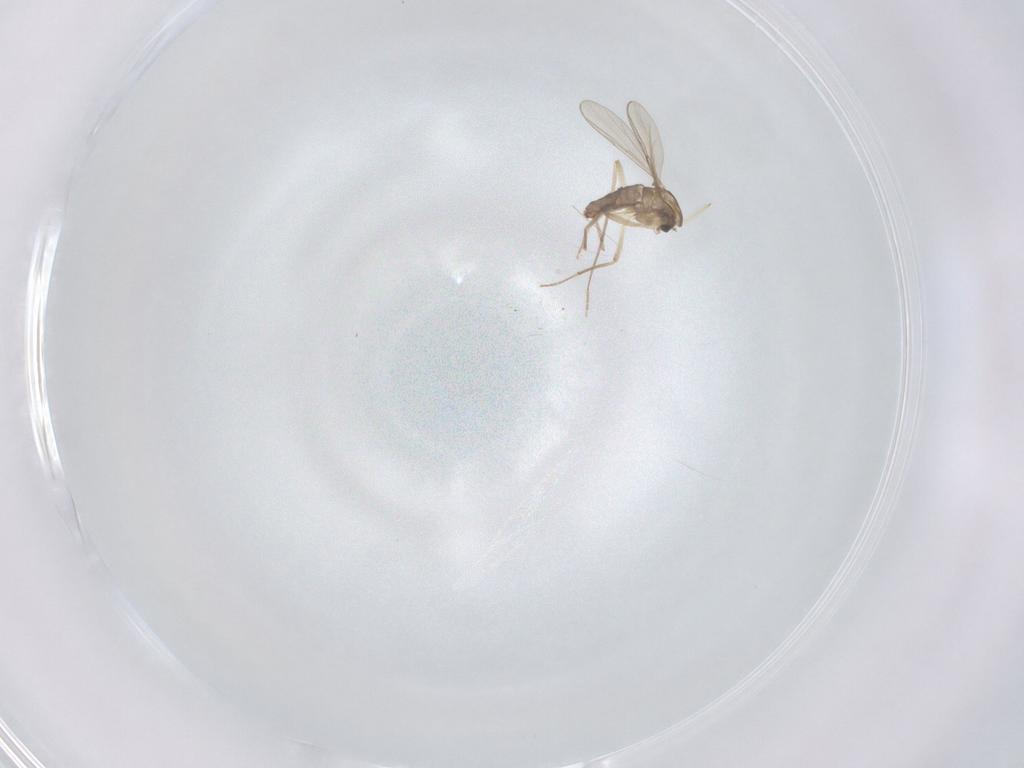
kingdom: Animalia
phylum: Arthropoda
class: Insecta
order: Diptera
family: Chironomidae
